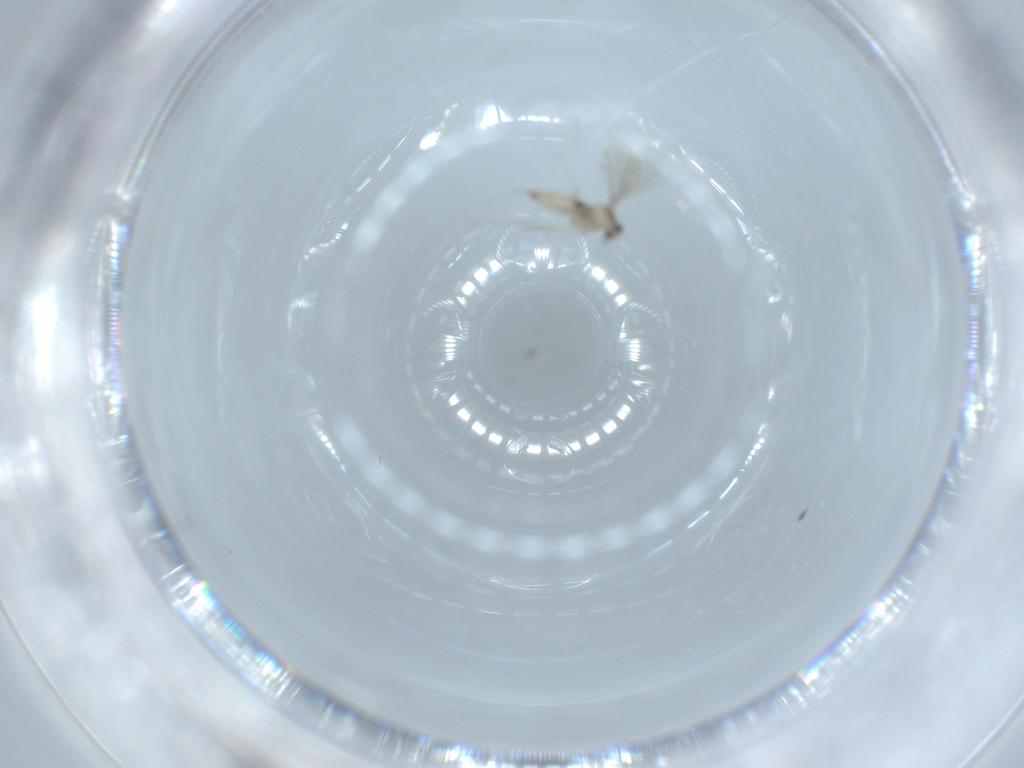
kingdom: Animalia
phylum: Arthropoda
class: Insecta
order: Diptera
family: Cecidomyiidae
